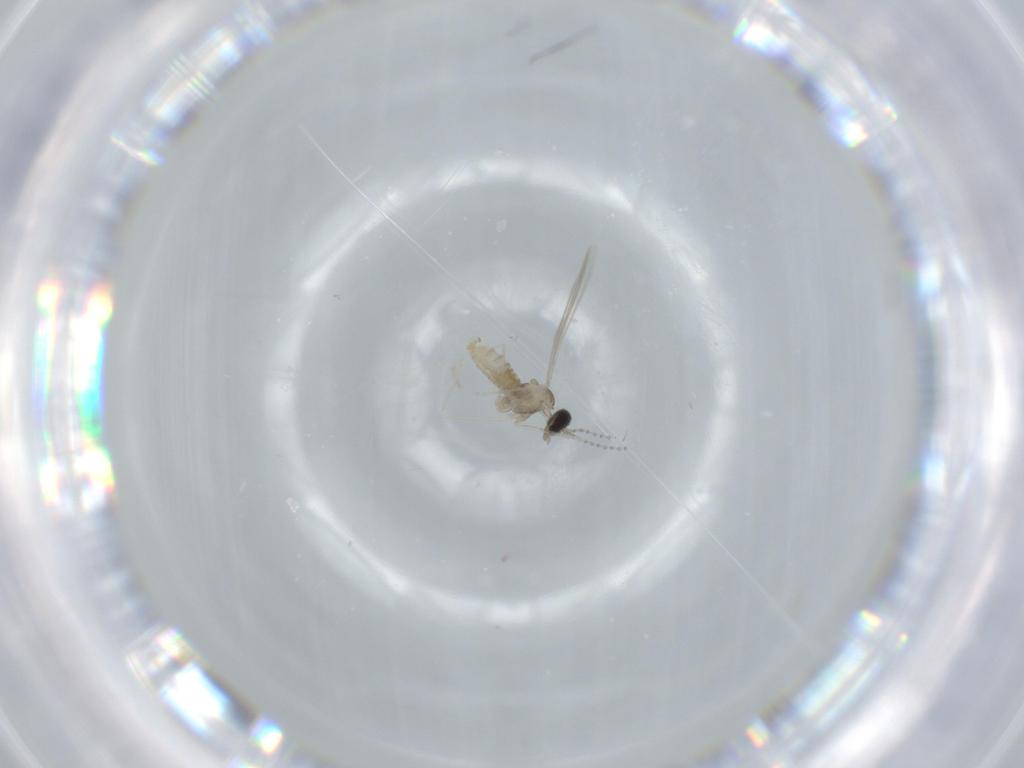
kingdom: Animalia
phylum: Arthropoda
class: Insecta
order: Diptera
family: Cecidomyiidae
